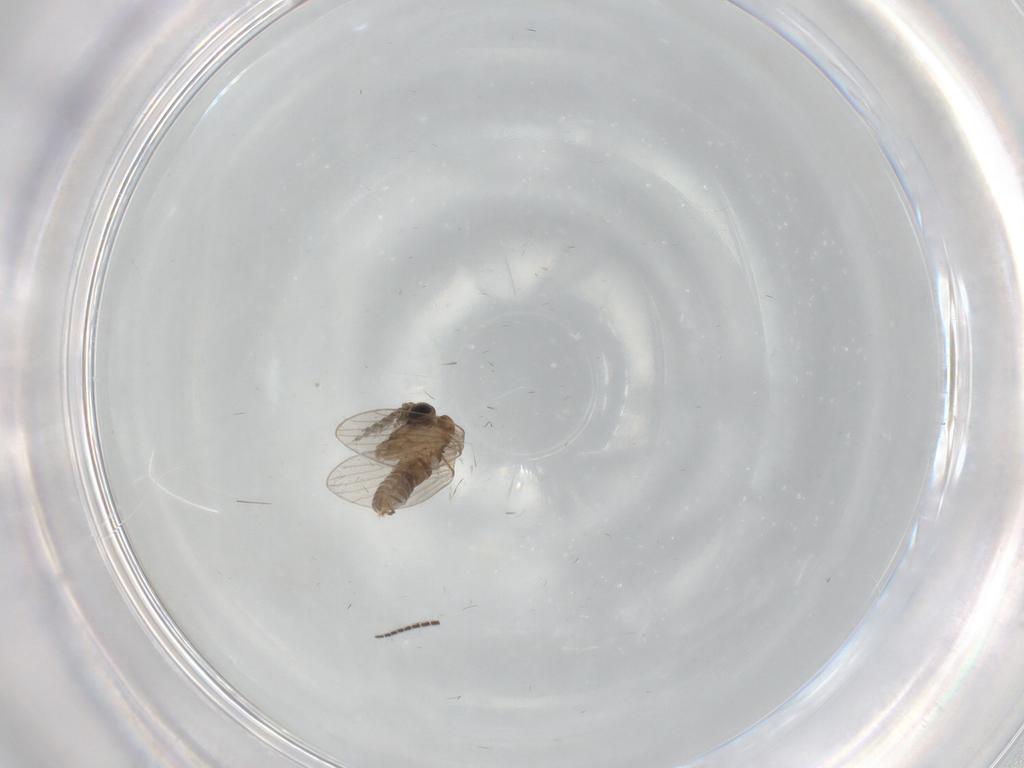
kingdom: Animalia
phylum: Arthropoda
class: Insecta
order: Diptera
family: Sciaridae
